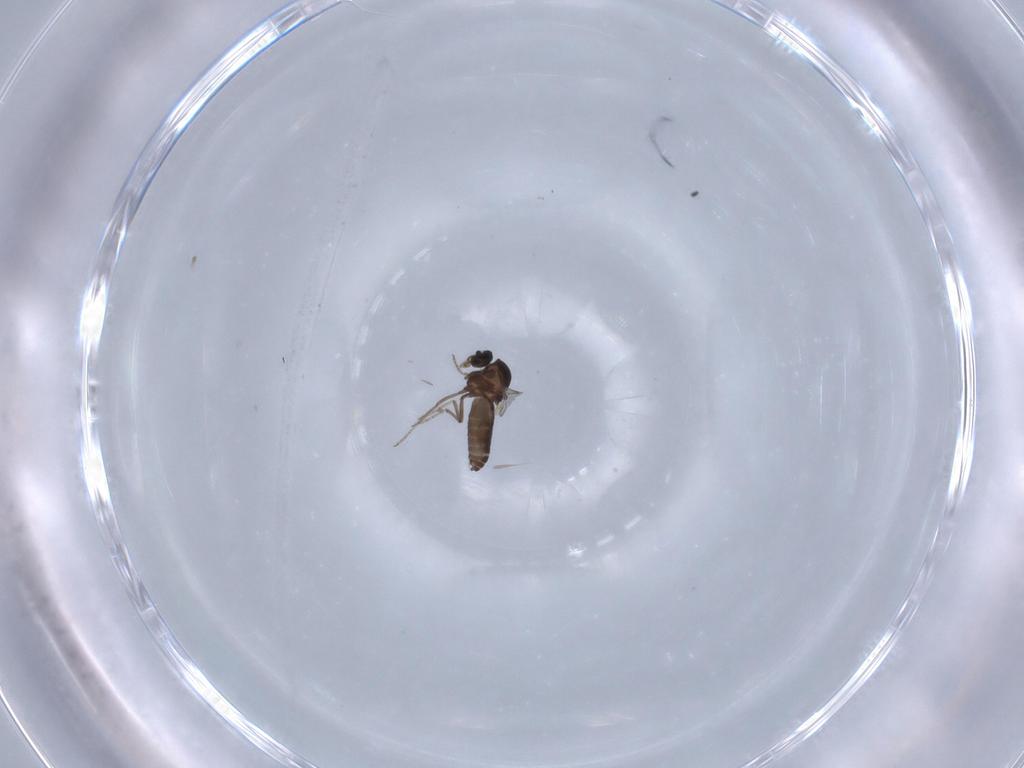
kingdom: Animalia
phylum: Arthropoda
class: Insecta
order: Diptera
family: Ceratopogonidae
